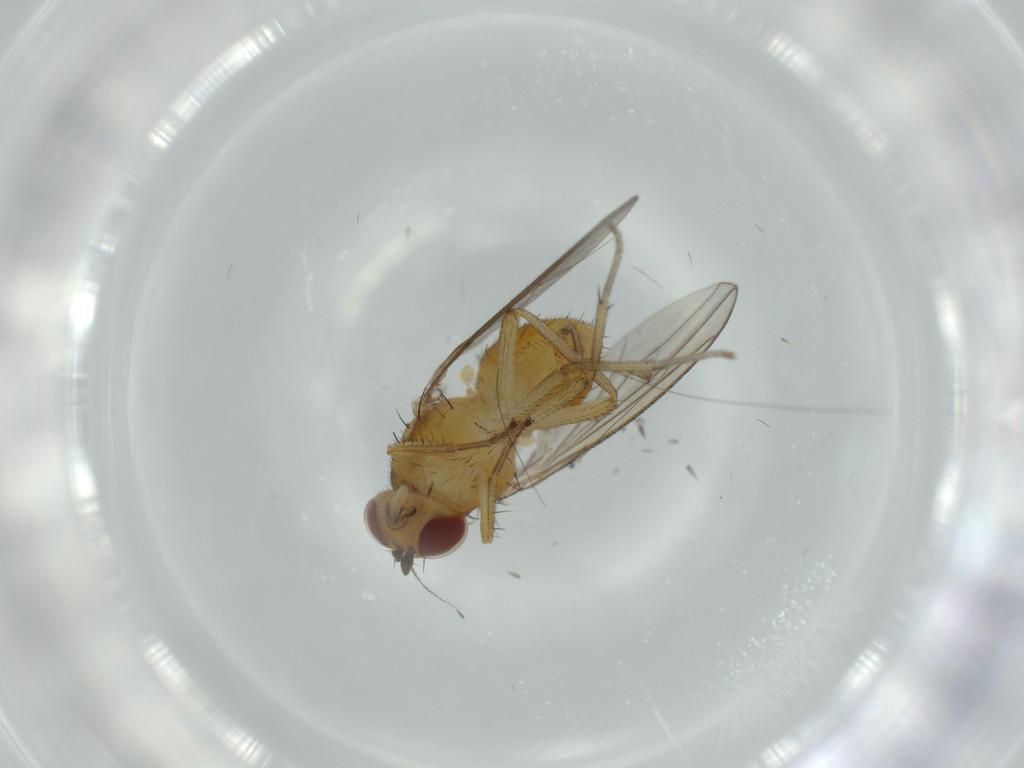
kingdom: Animalia
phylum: Arthropoda
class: Insecta
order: Diptera
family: Lauxaniidae
